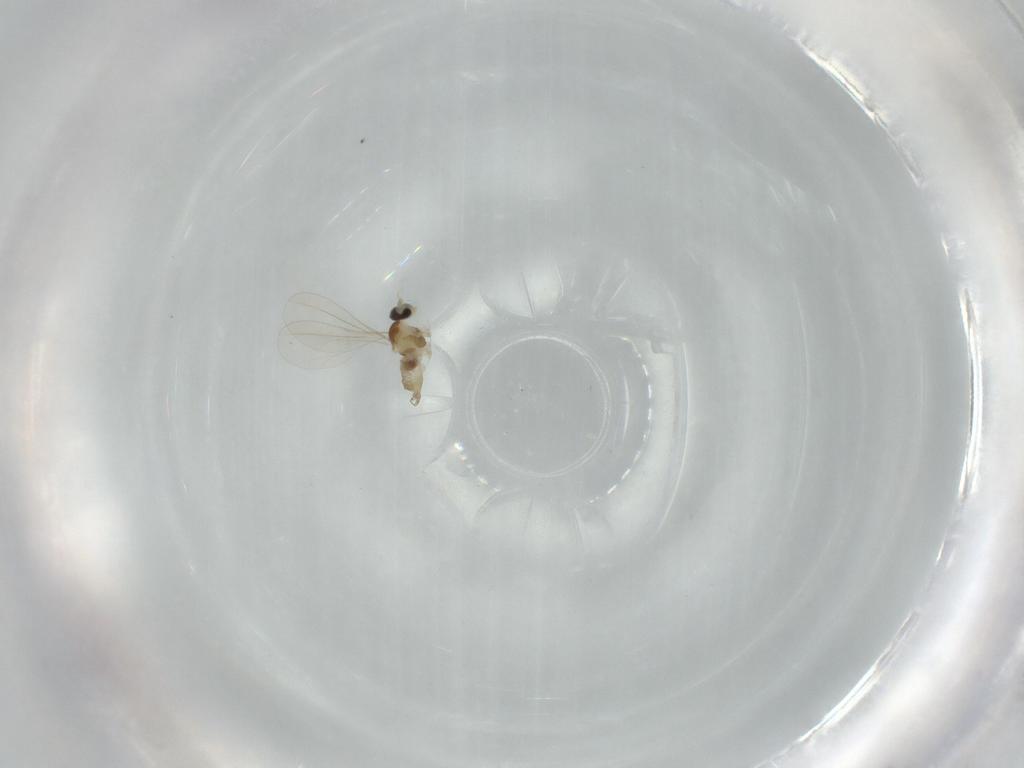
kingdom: Animalia
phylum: Arthropoda
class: Insecta
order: Diptera
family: Cecidomyiidae
